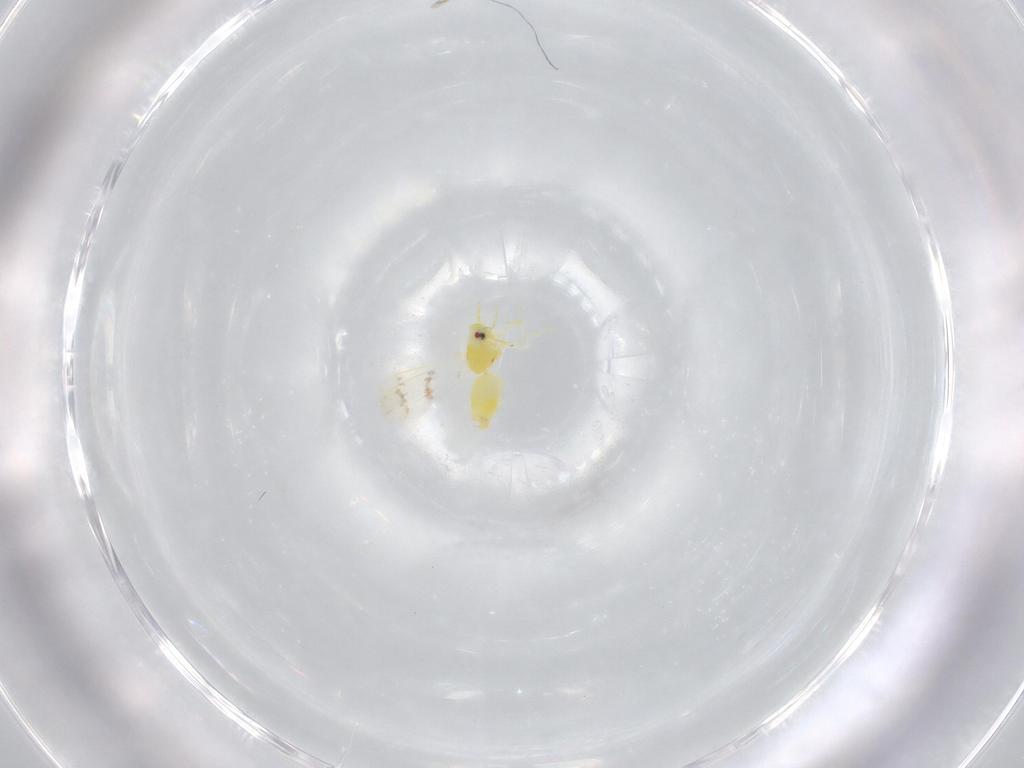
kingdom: Animalia
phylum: Arthropoda
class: Insecta
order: Hemiptera
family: Aleyrodidae
